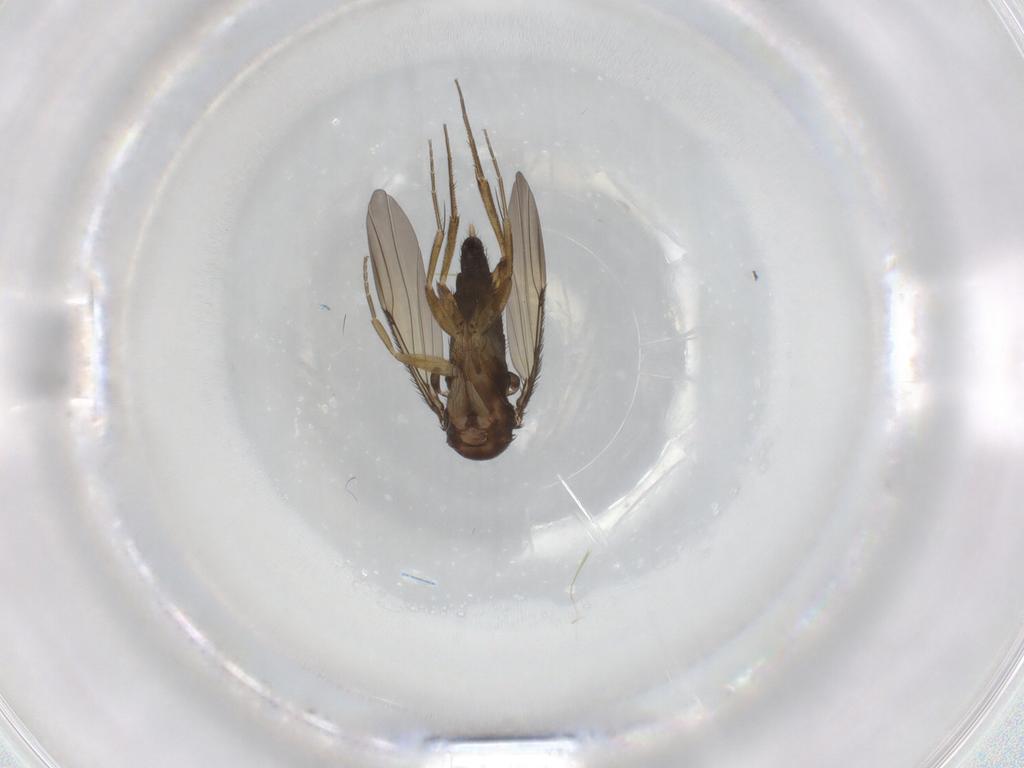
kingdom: Animalia
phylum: Arthropoda
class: Insecta
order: Diptera
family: Phoridae
